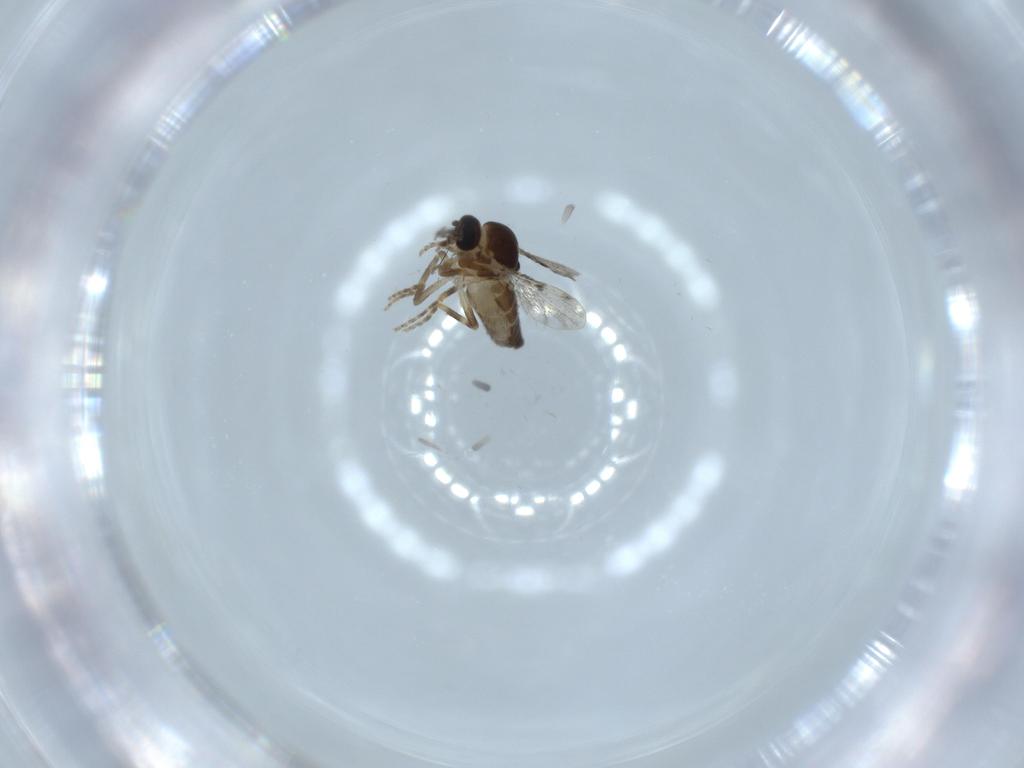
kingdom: Animalia
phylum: Arthropoda
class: Insecta
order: Diptera
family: Ceratopogonidae
